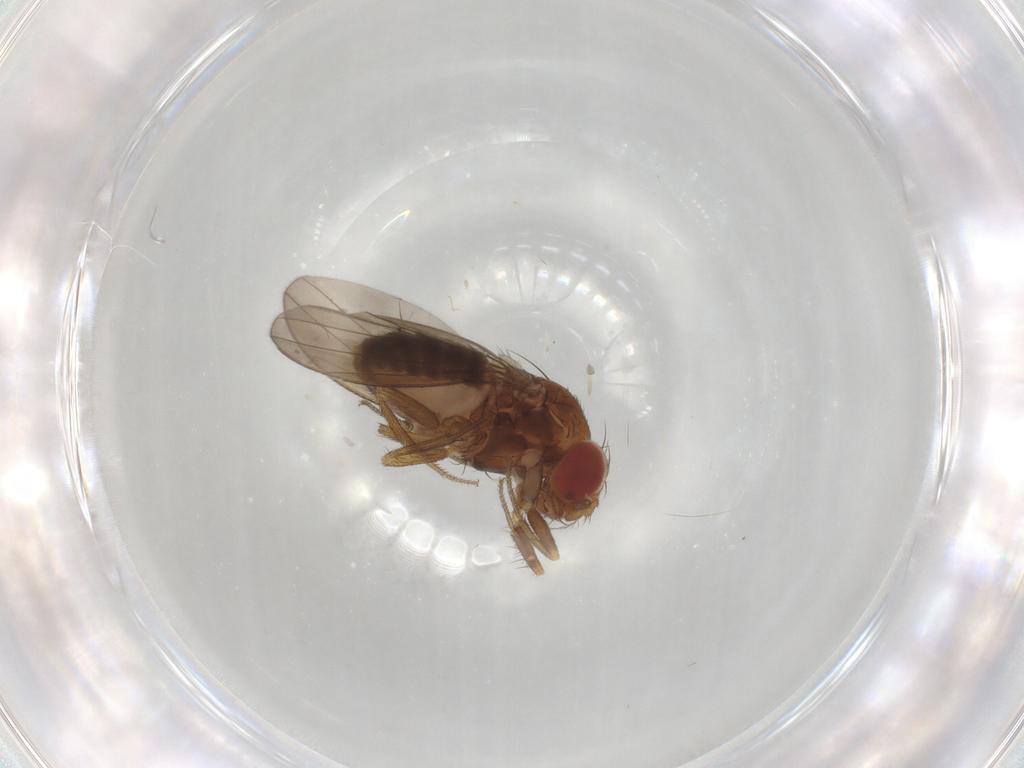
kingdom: Animalia
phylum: Arthropoda
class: Insecta
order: Diptera
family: Drosophilidae
